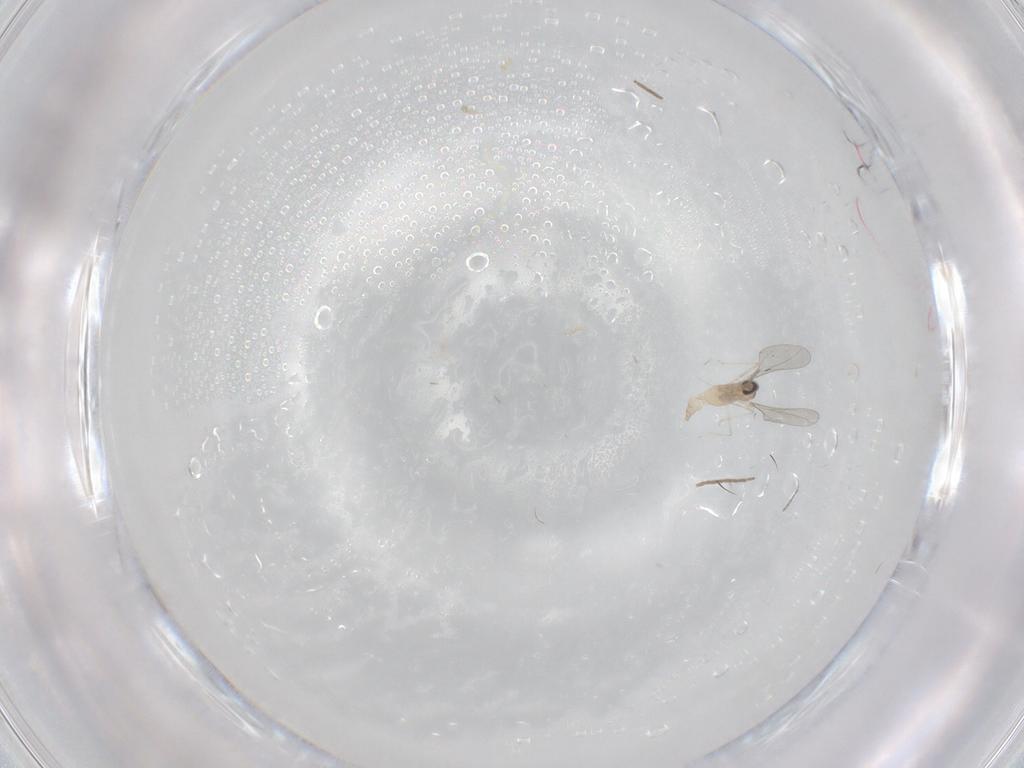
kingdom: Animalia
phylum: Arthropoda
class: Insecta
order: Diptera
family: Cecidomyiidae
